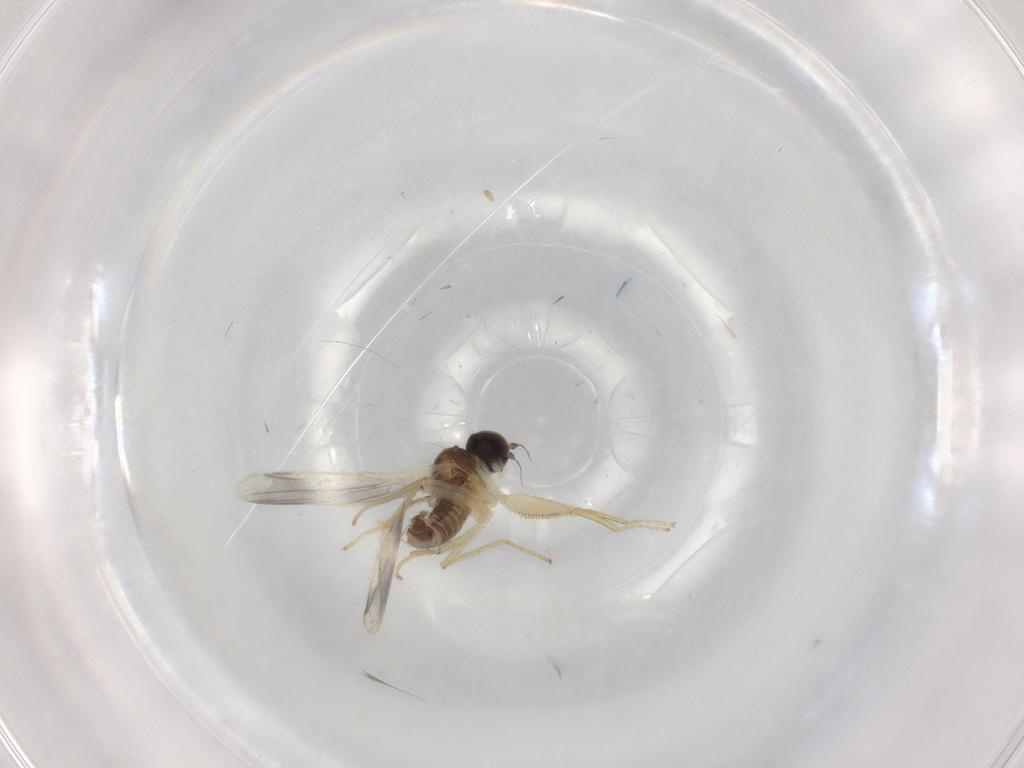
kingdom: Animalia
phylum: Arthropoda
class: Insecta
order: Diptera
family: Empididae
